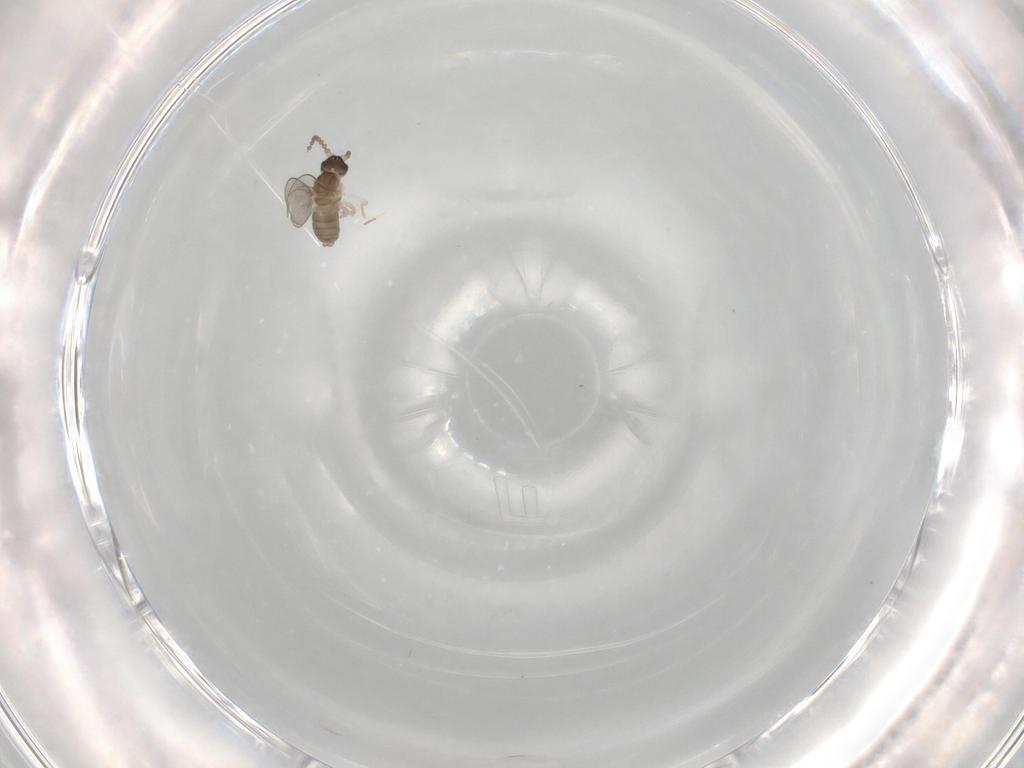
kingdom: Animalia
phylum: Arthropoda
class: Insecta
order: Diptera
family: Cecidomyiidae
